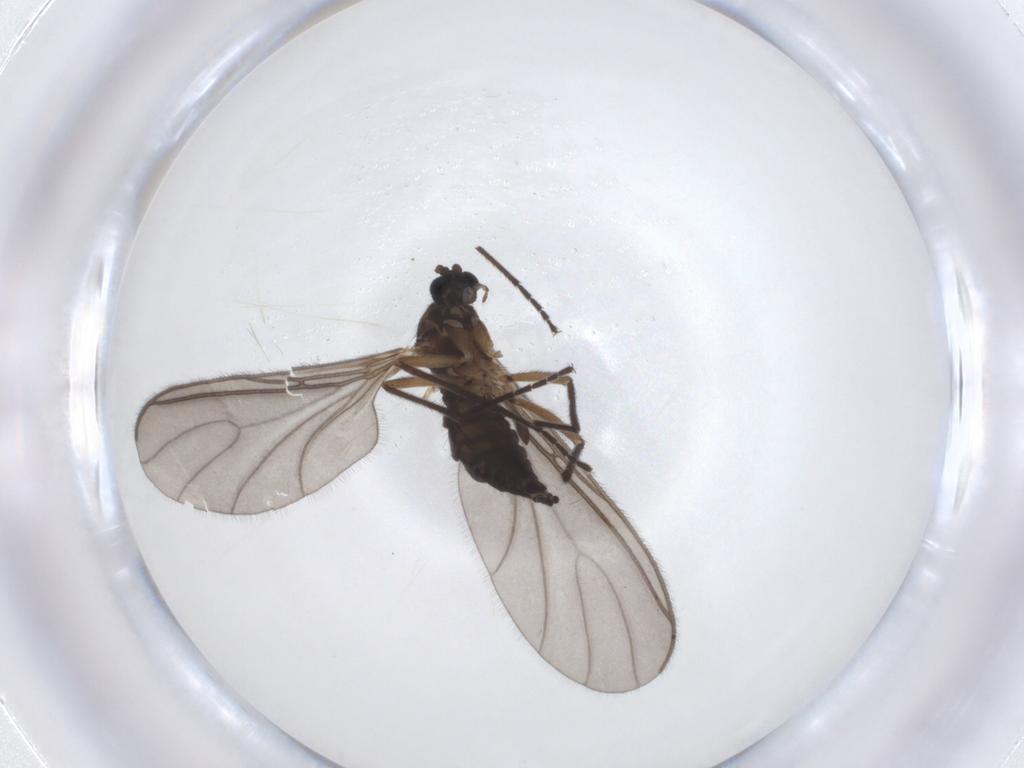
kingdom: Animalia
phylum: Arthropoda
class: Insecta
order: Diptera
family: Sciaridae
